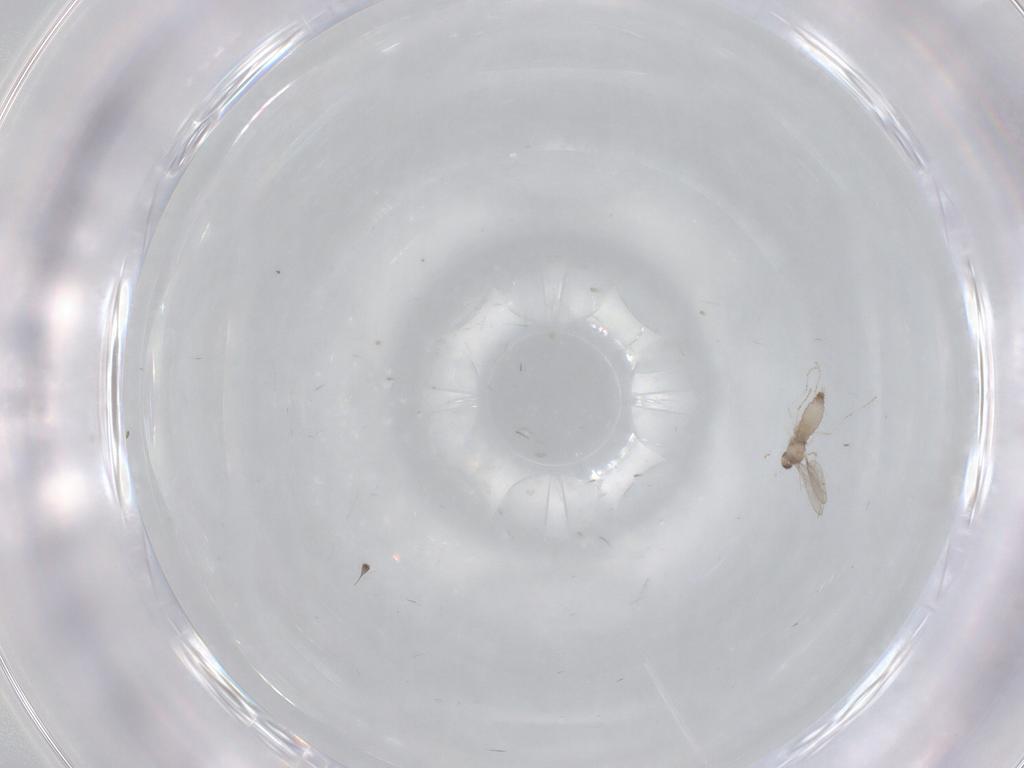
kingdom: Animalia
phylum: Arthropoda
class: Insecta
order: Diptera
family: Cecidomyiidae
